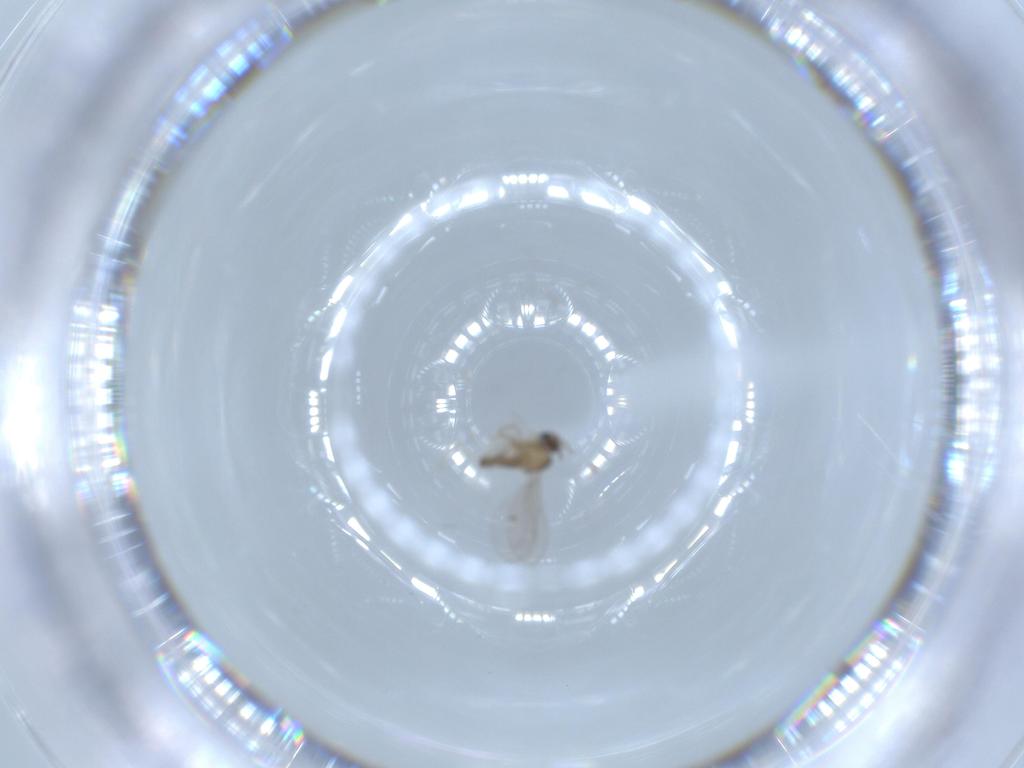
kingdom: Animalia
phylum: Arthropoda
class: Insecta
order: Diptera
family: Cecidomyiidae
